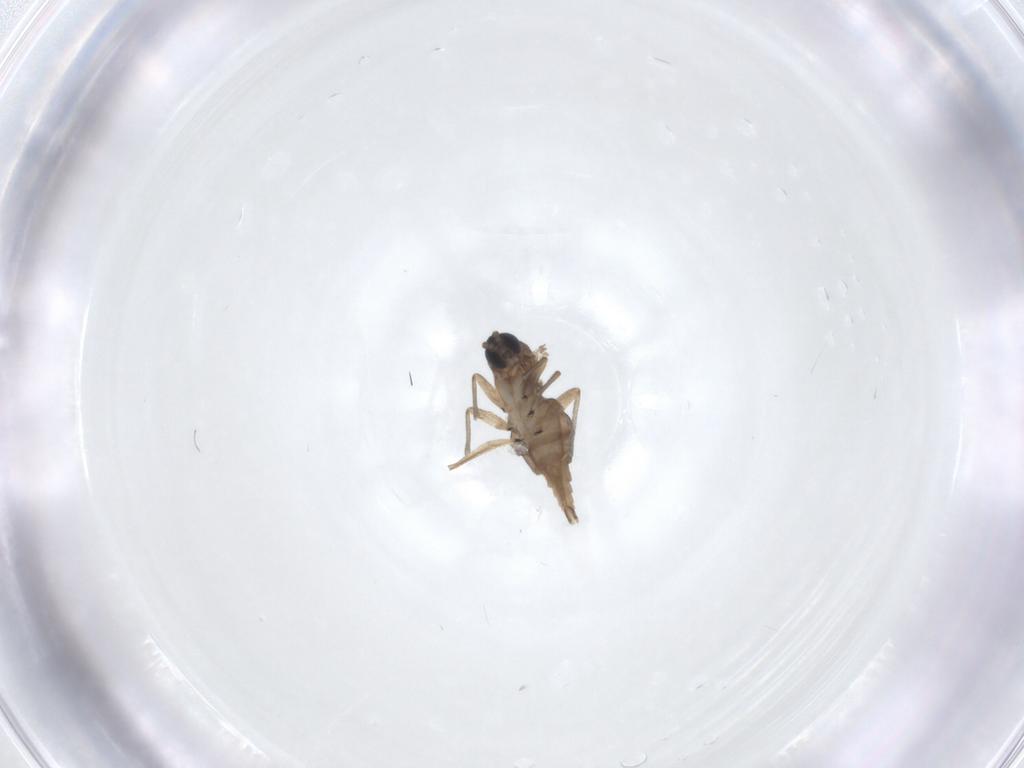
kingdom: Animalia
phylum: Arthropoda
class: Insecta
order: Diptera
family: Sciaridae
